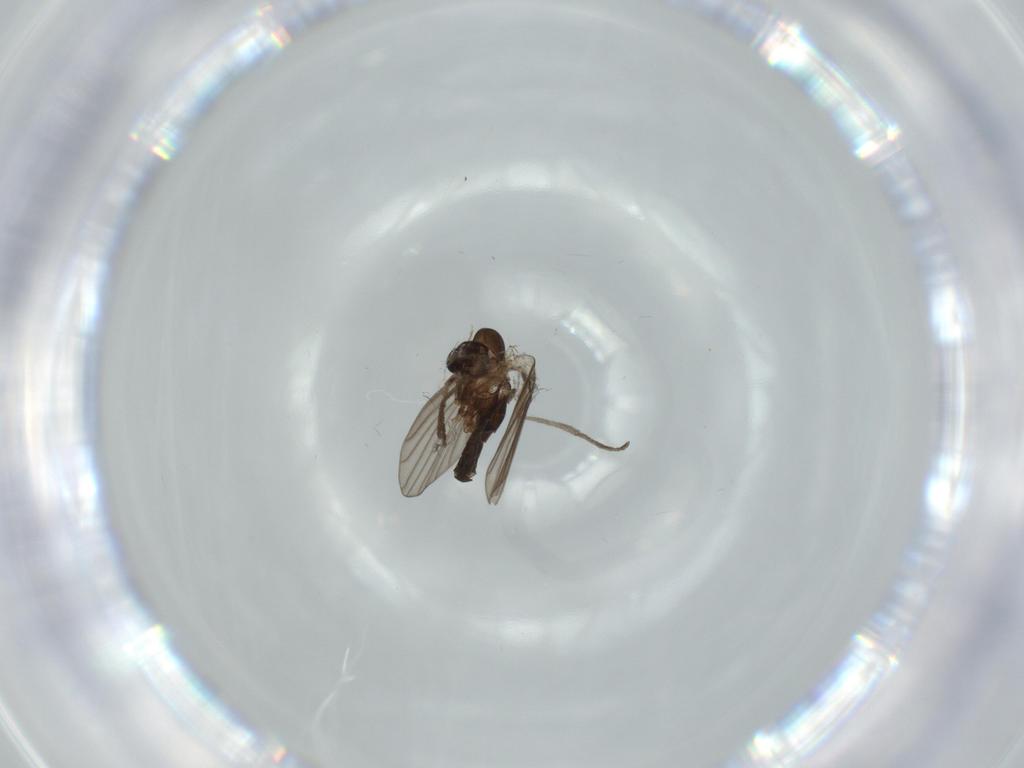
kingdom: Animalia
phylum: Arthropoda
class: Insecta
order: Diptera
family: Psychodidae
